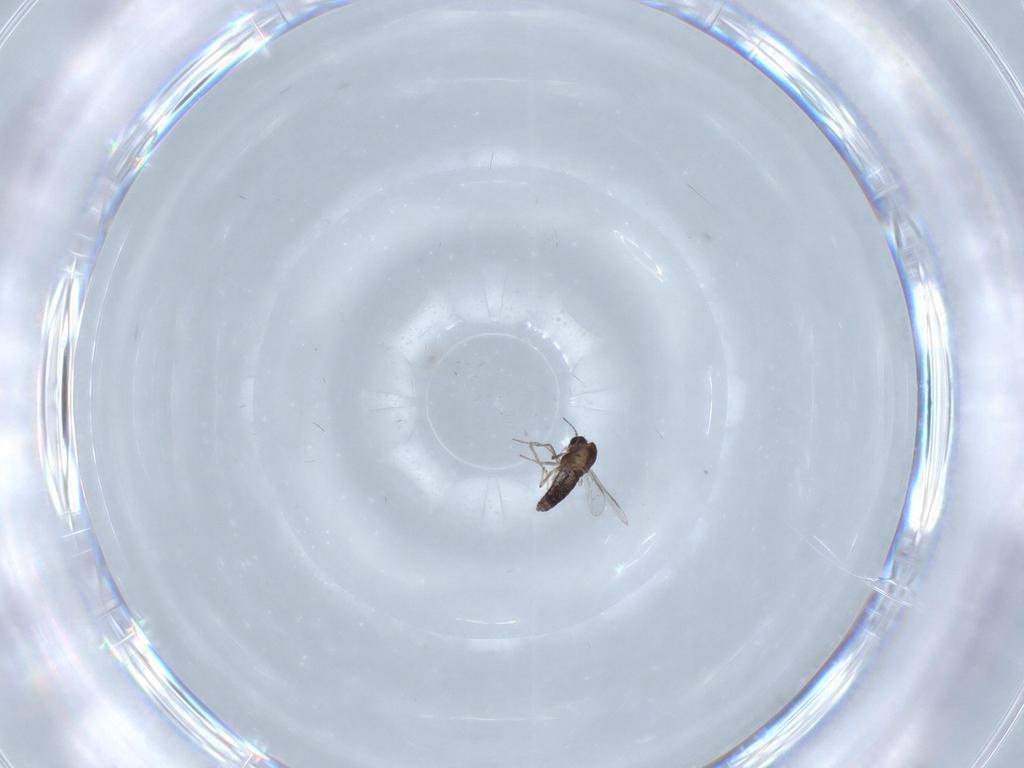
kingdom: Animalia
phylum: Arthropoda
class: Insecta
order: Diptera
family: Chironomidae
